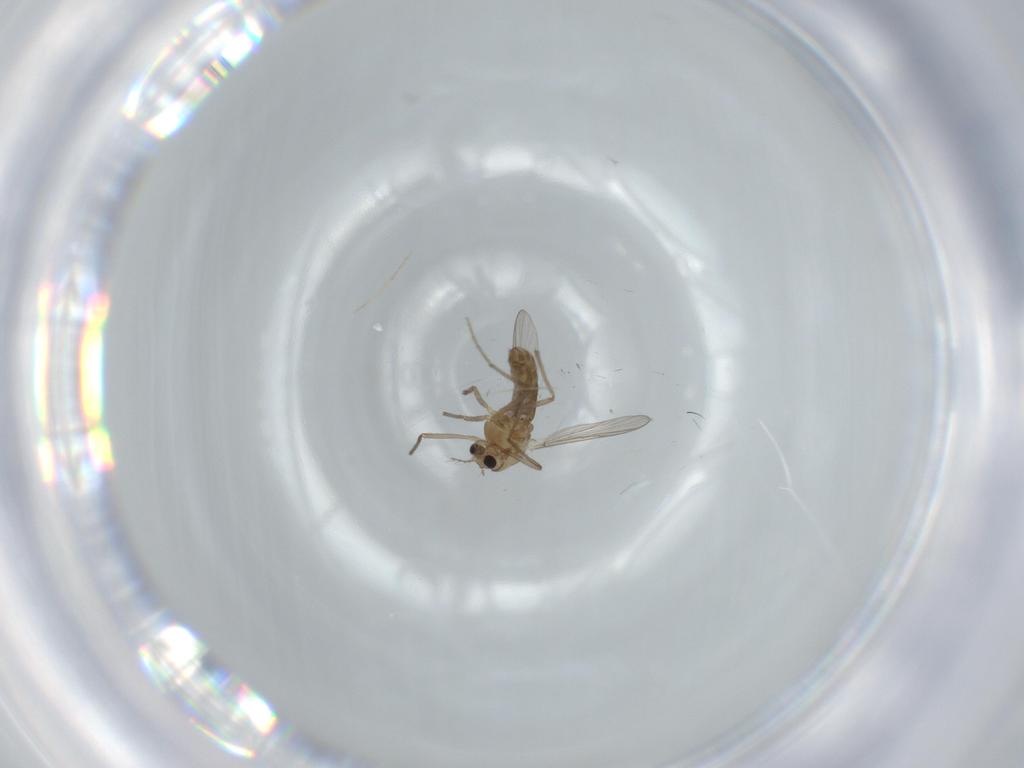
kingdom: Animalia
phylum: Arthropoda
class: Insecta
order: Diptera
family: Chironomidae
